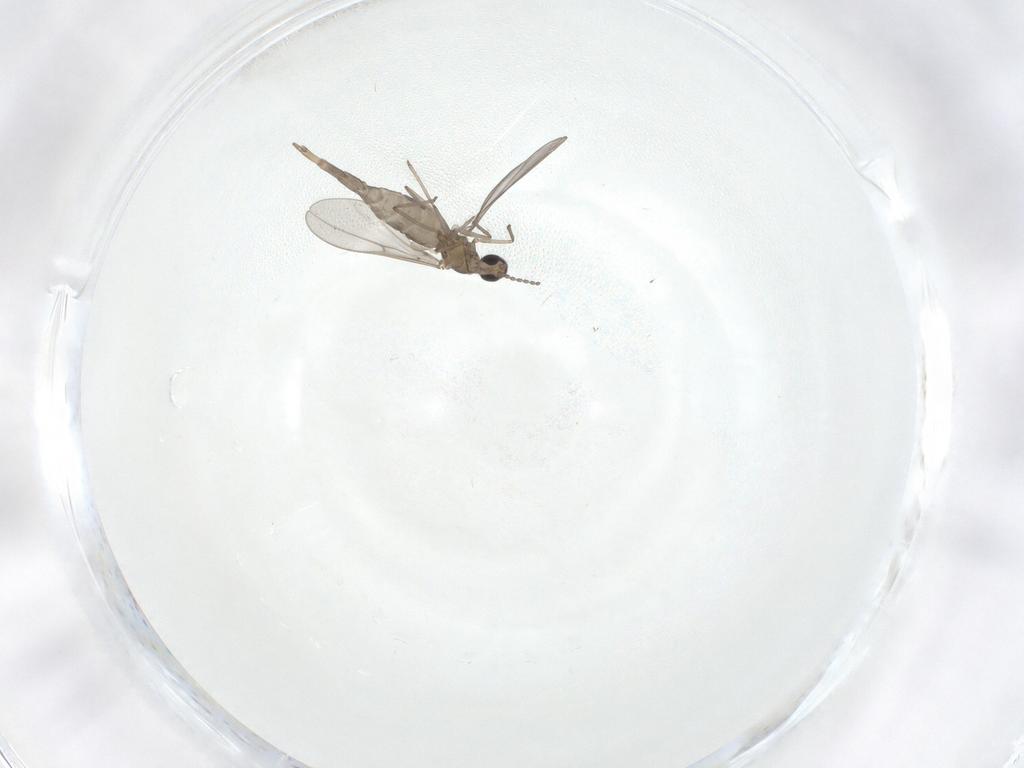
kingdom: Animalia
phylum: Arthropoda
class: Insecta
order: Diptera
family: Cecidomyiidae
